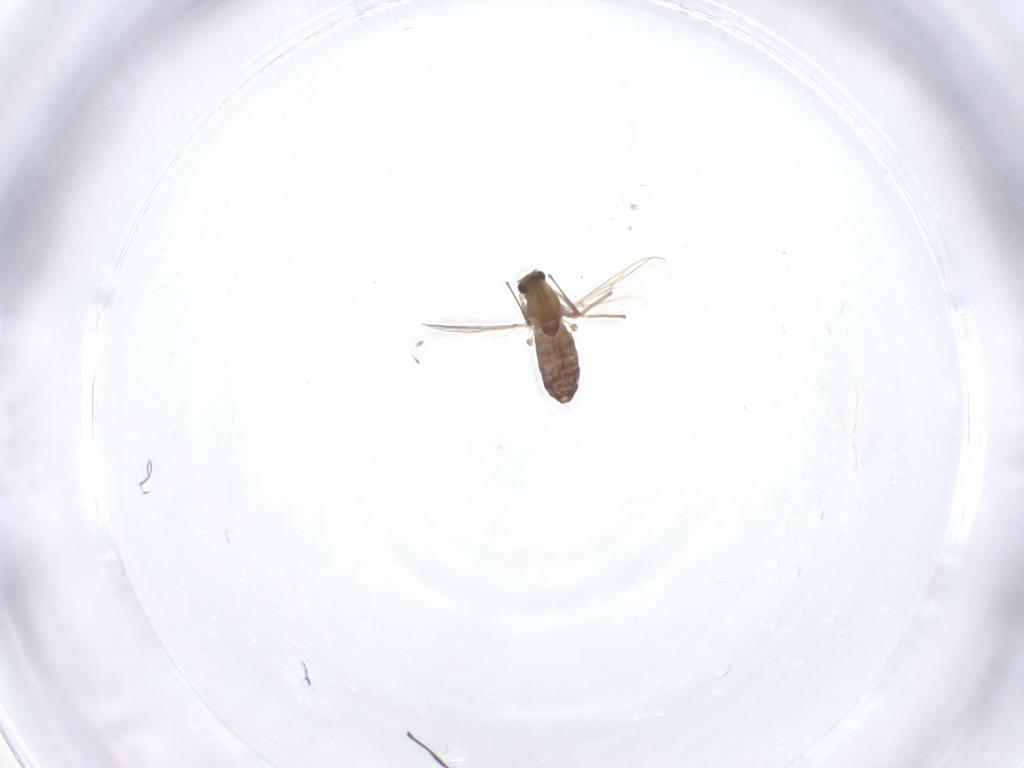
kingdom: Animalia
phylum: Arthropoda
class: Insecta
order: Diptera
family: Chironomidae
